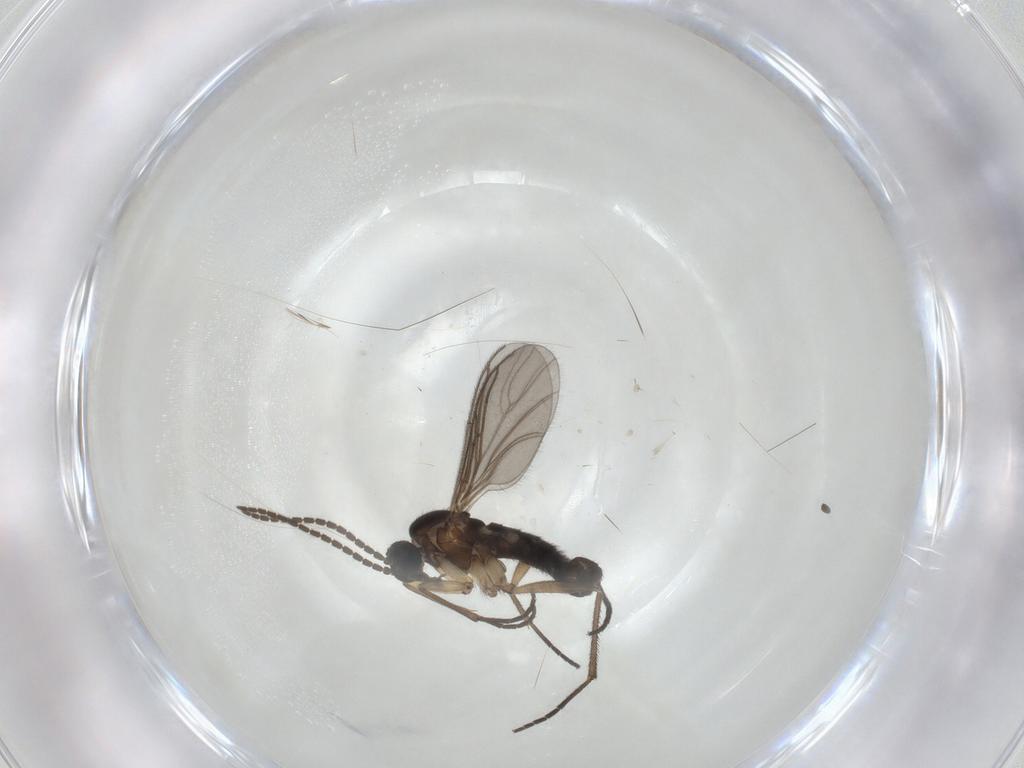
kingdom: Animalia
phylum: Arthropoda
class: Insecta
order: Diptera
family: Sciaridae
